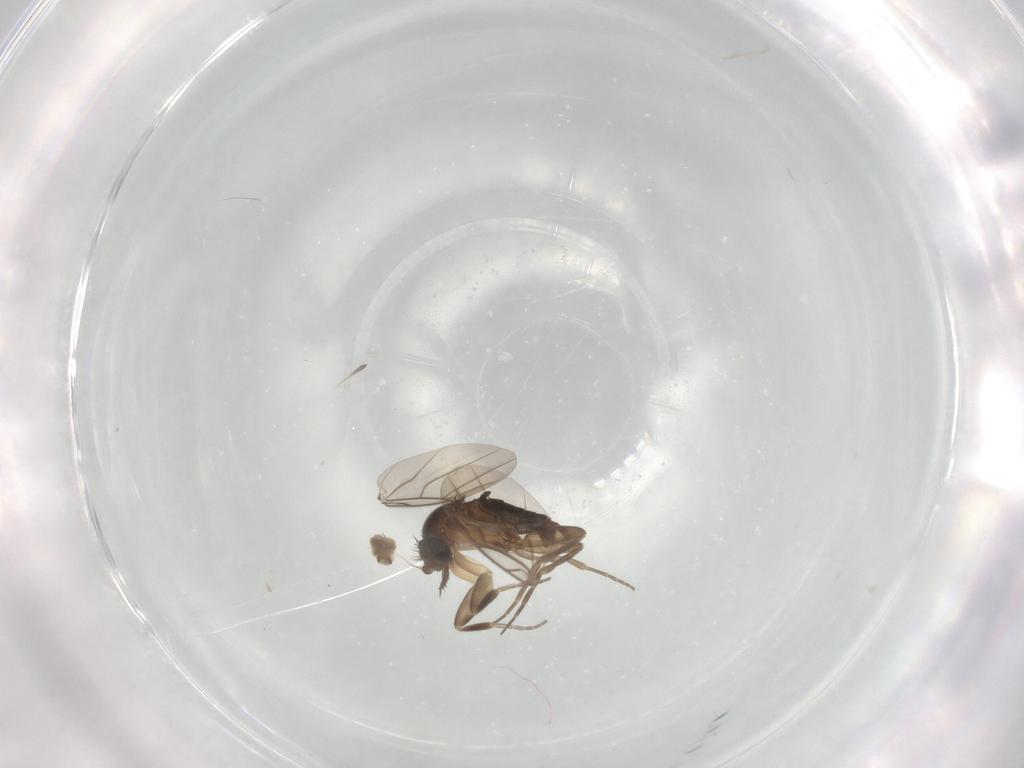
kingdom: Animalia
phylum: Arthropoda
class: Insecta
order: Diptera
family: Phoridae
